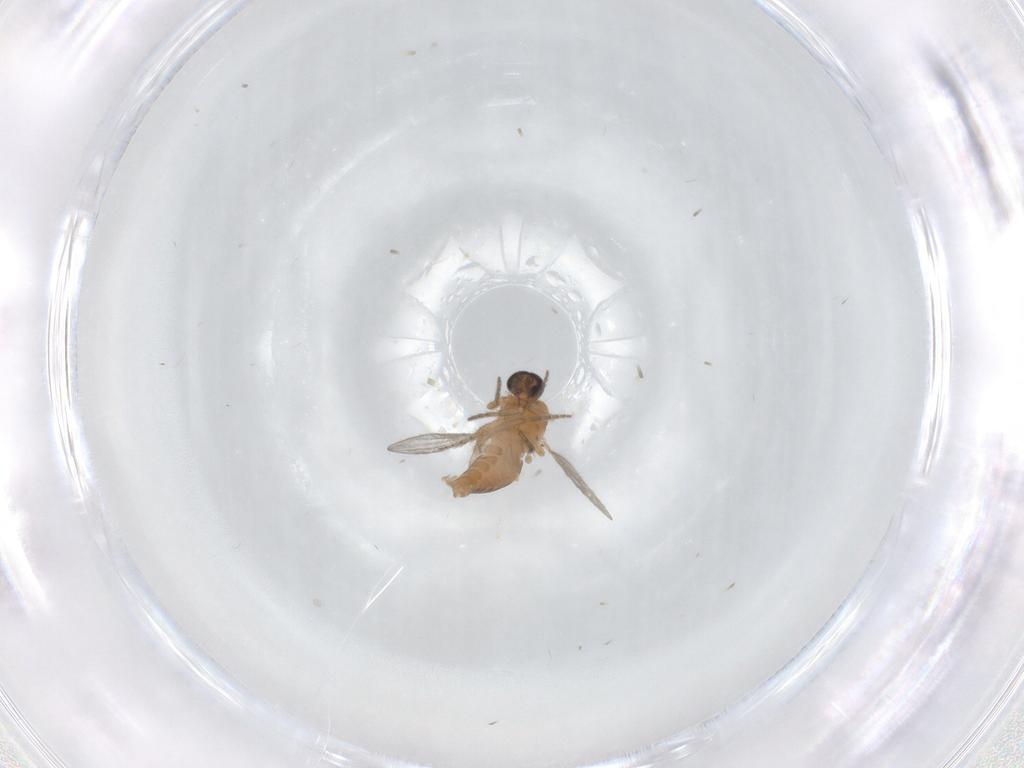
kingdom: Animalia
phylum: Arthropoda
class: Insecta
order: Diptera
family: Ceratopogonidae
